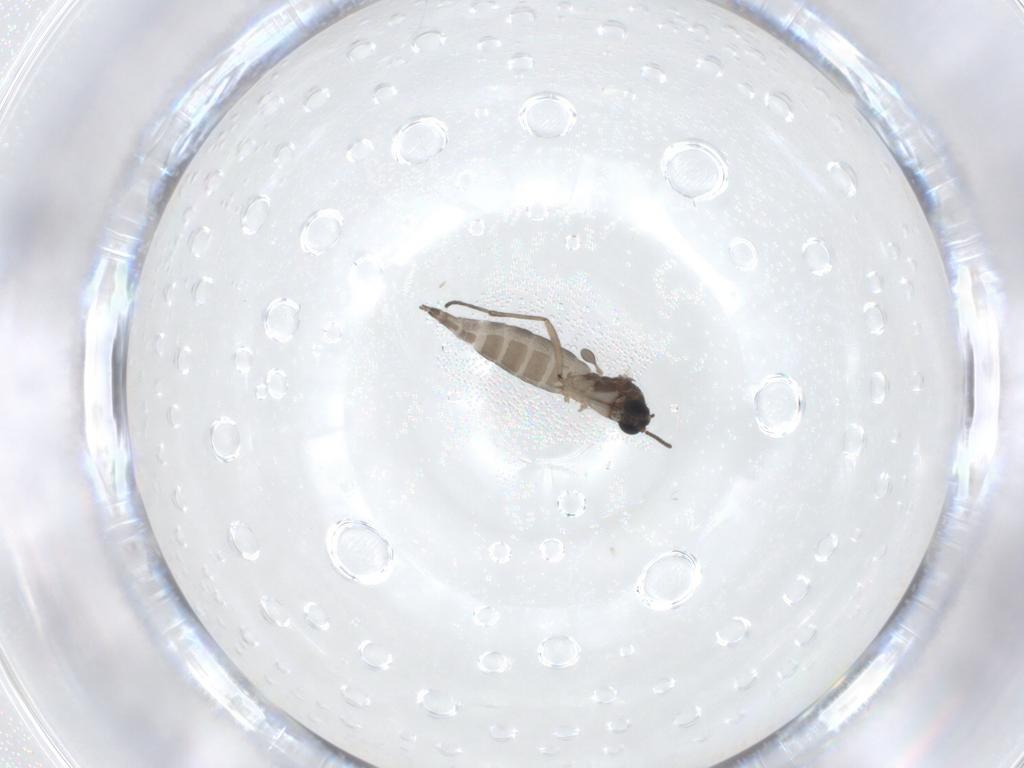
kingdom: Animalia
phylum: Arthropoda
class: Insecta
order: Diptera
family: Sciaridae
